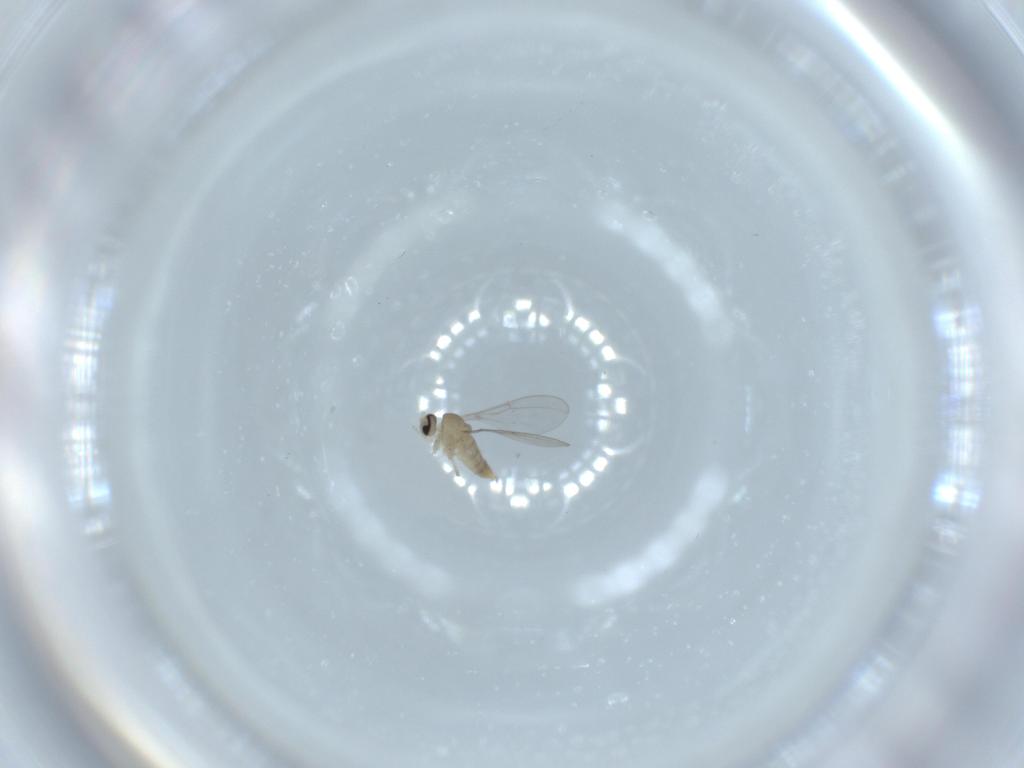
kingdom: Animalia
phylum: Arthropoda
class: Insecta
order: Diptera
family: Cecidomyiidae
